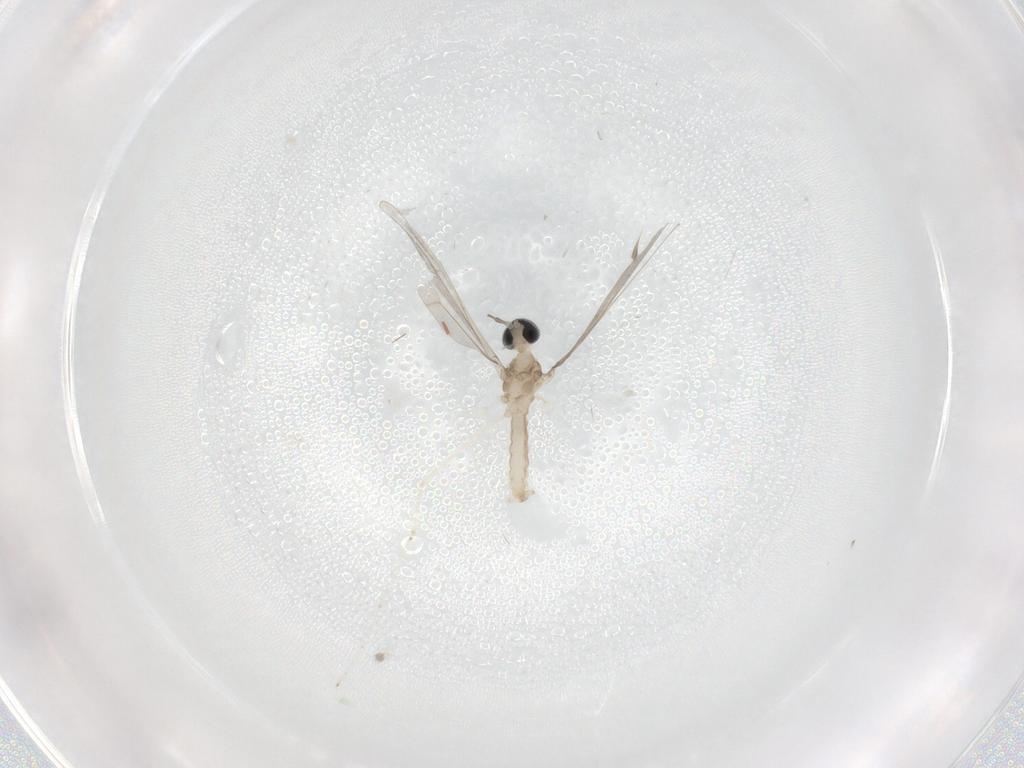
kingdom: Animalia
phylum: Arthropoda
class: Insecta
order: Diptera
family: Cecidomyiidae
